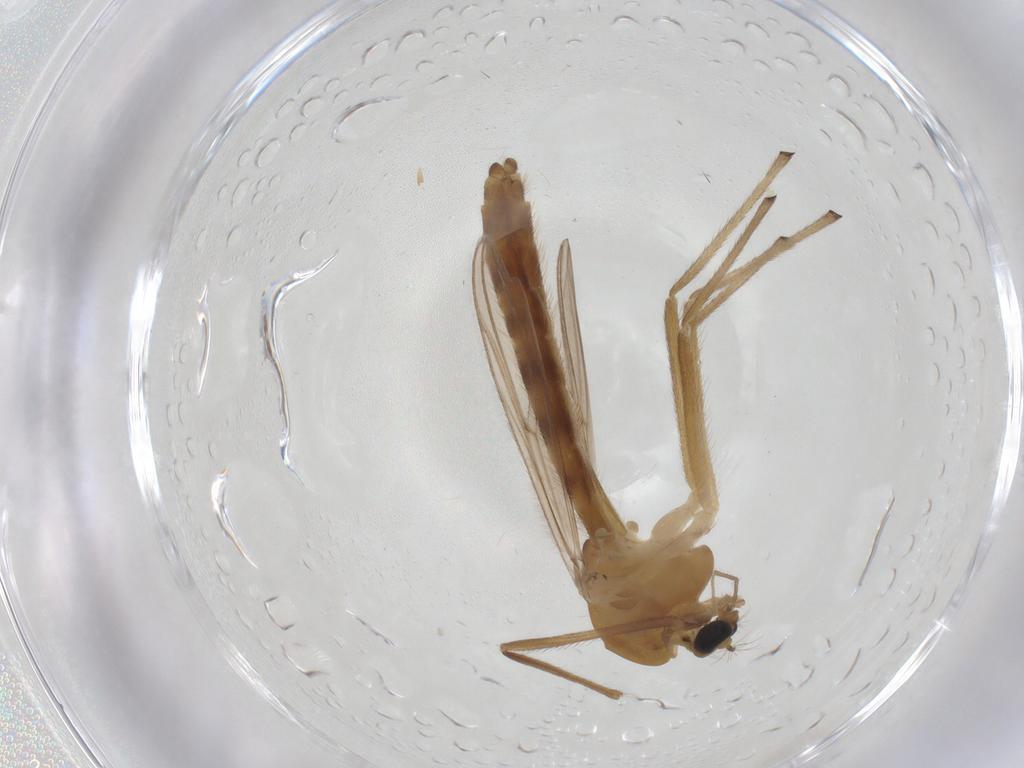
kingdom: Animalia
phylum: Arthropoda
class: Insecta
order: Diptera
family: Chironomidae
